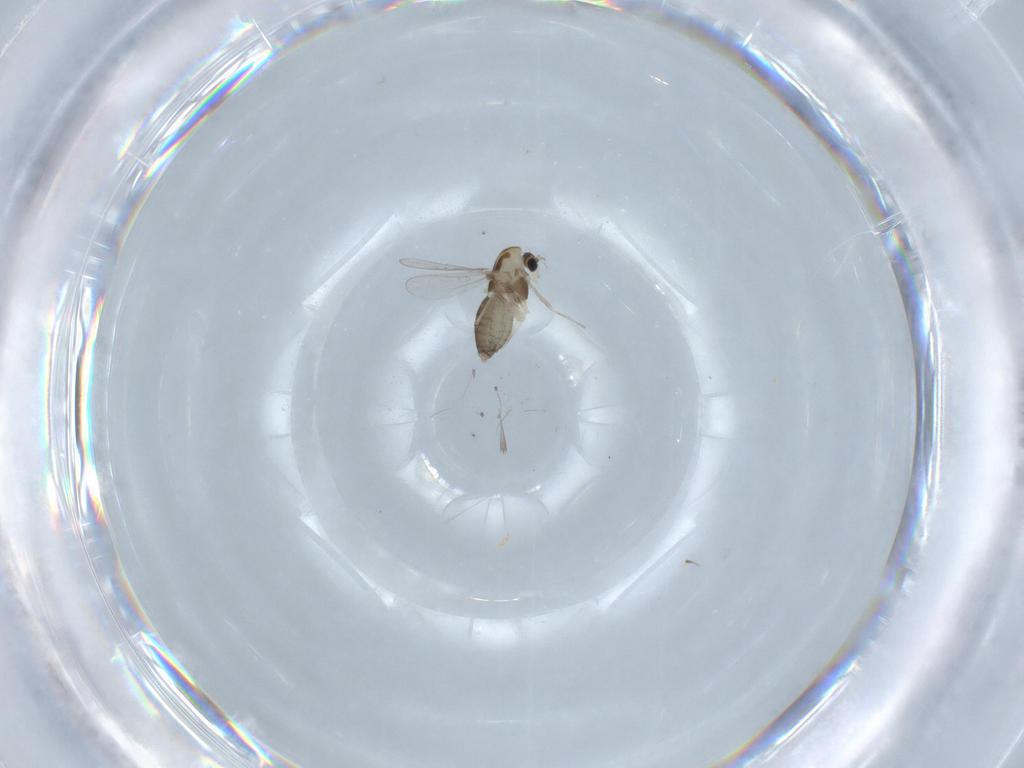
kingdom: Animalia
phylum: Arthropoda
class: Insecta
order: Diptera
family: Chironomidae
